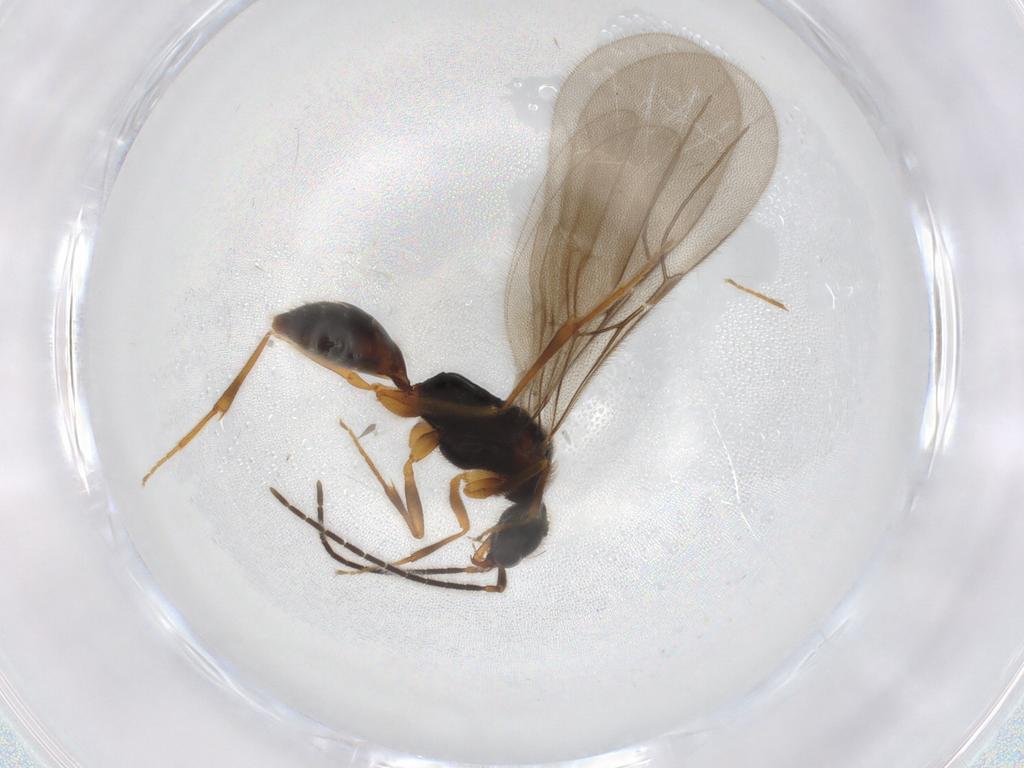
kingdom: Animalia
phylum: Arthropoda
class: Insecta
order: Hymenoptera
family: Bethylidae
